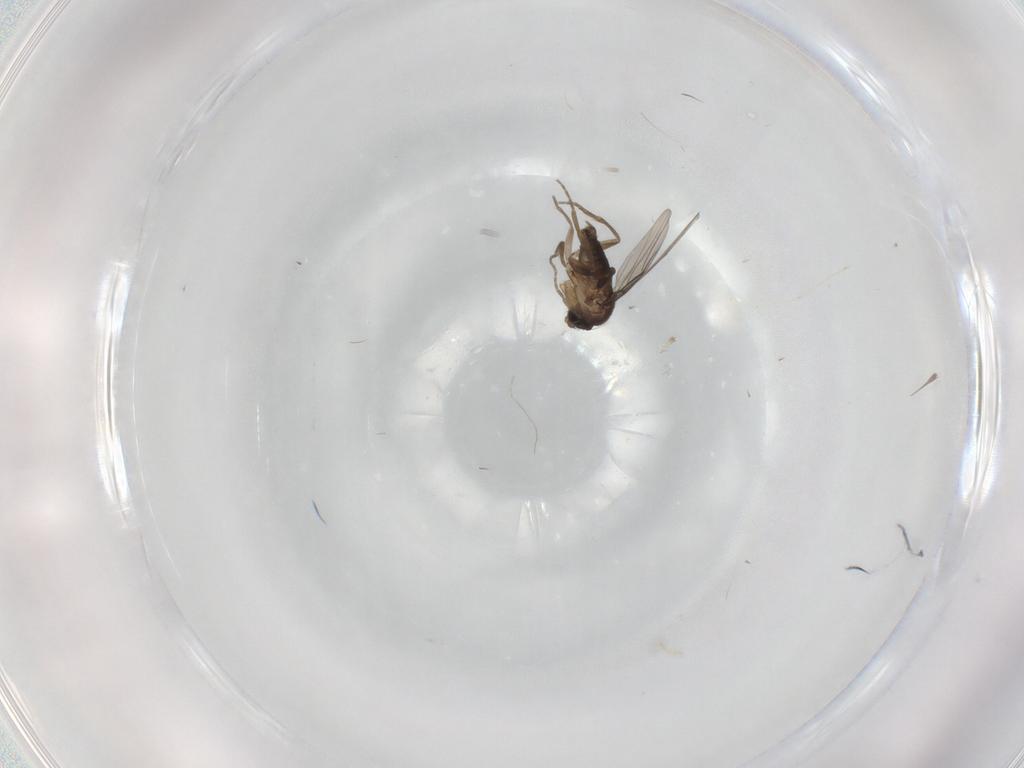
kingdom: Animalia
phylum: Arthropoda
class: Insecta
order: Diptera
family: Phoridae
